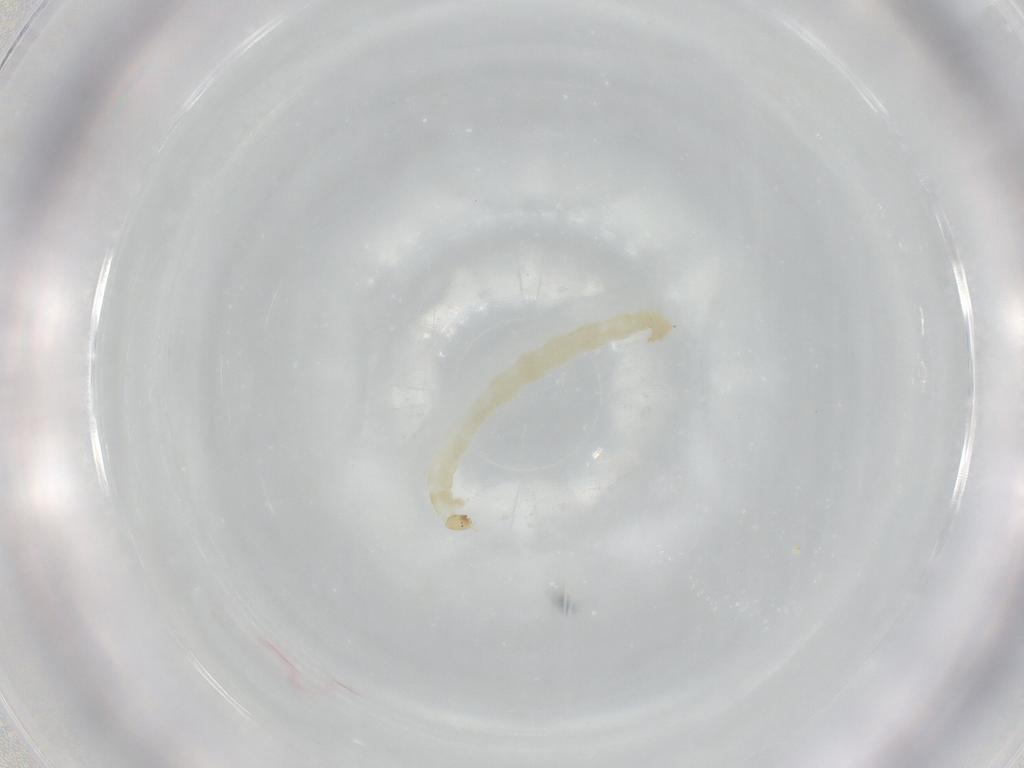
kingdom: Animalia
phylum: Arthropoda
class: Insecta
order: Diptera
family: Chironomidae
